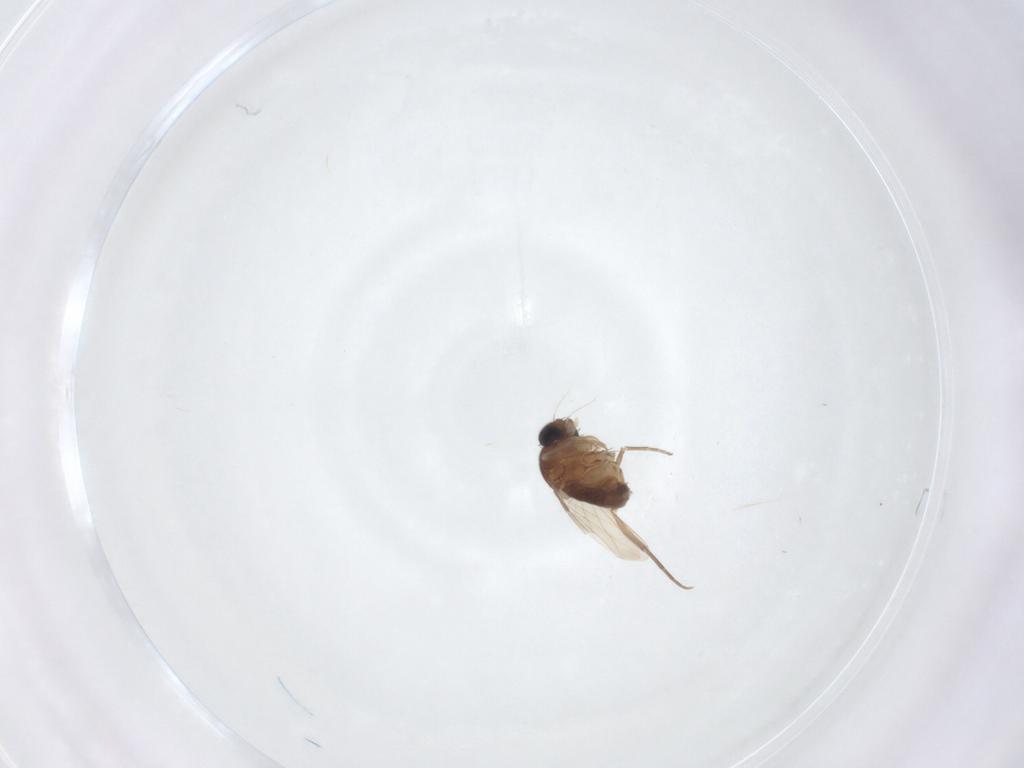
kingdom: Animalia
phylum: Arthropoda
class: Insecta
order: Diptera
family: Phoridae
